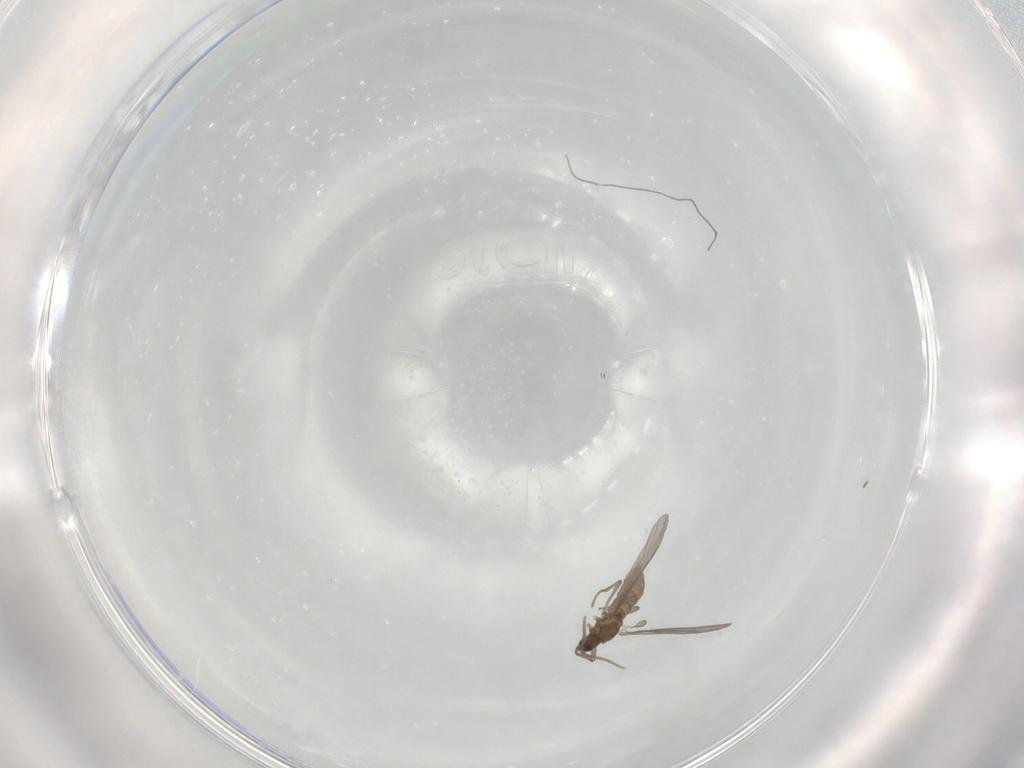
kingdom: Animalia
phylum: Arthropoda
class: Insecta
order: Diptera
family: Sciaridae
